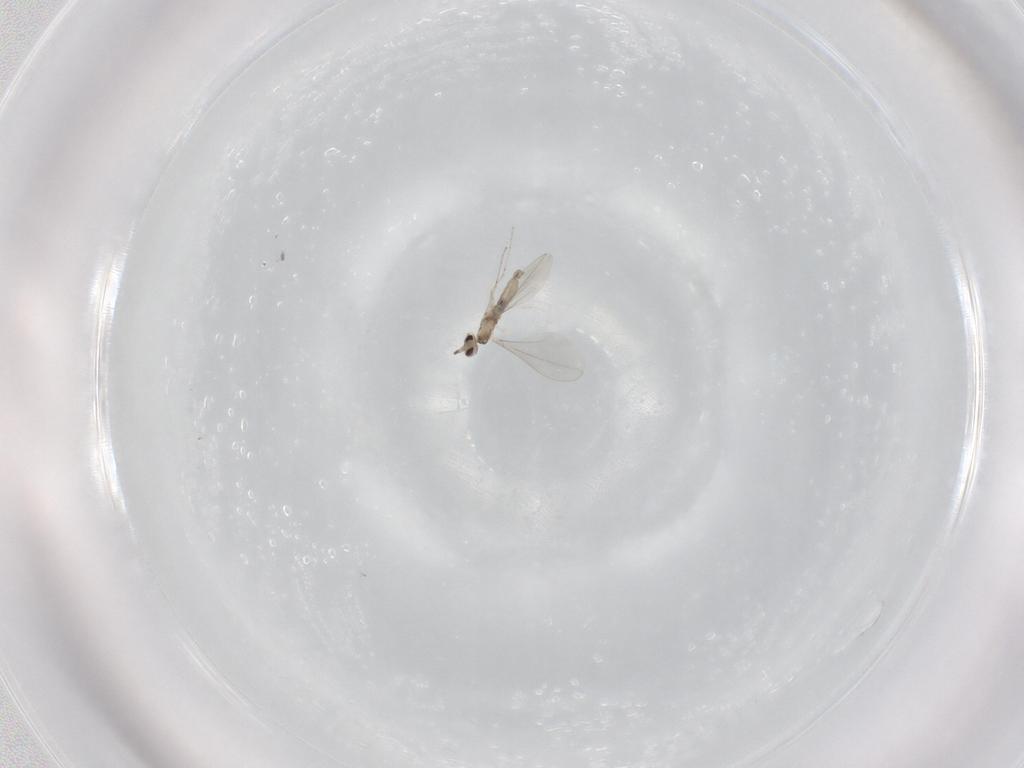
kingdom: Animalia
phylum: Arthropoda
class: Insecta
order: Diptera
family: Cecidomyiidae
